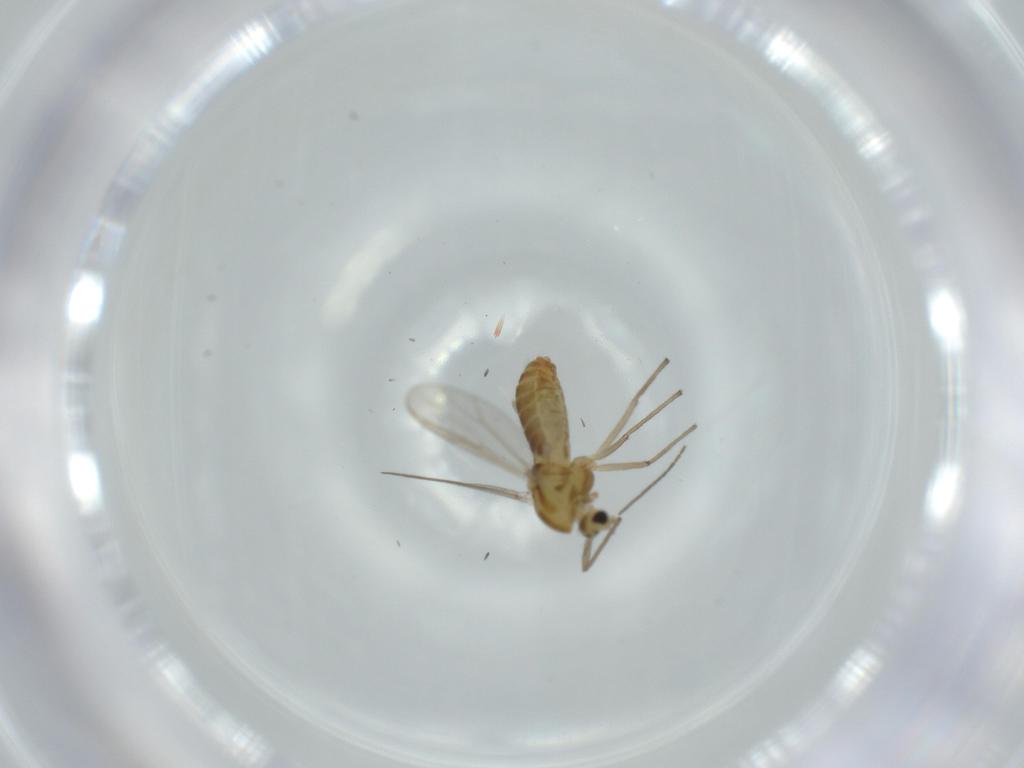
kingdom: Animalia
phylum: Arthropoda
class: Insecta
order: Diptera
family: Chironomidae
